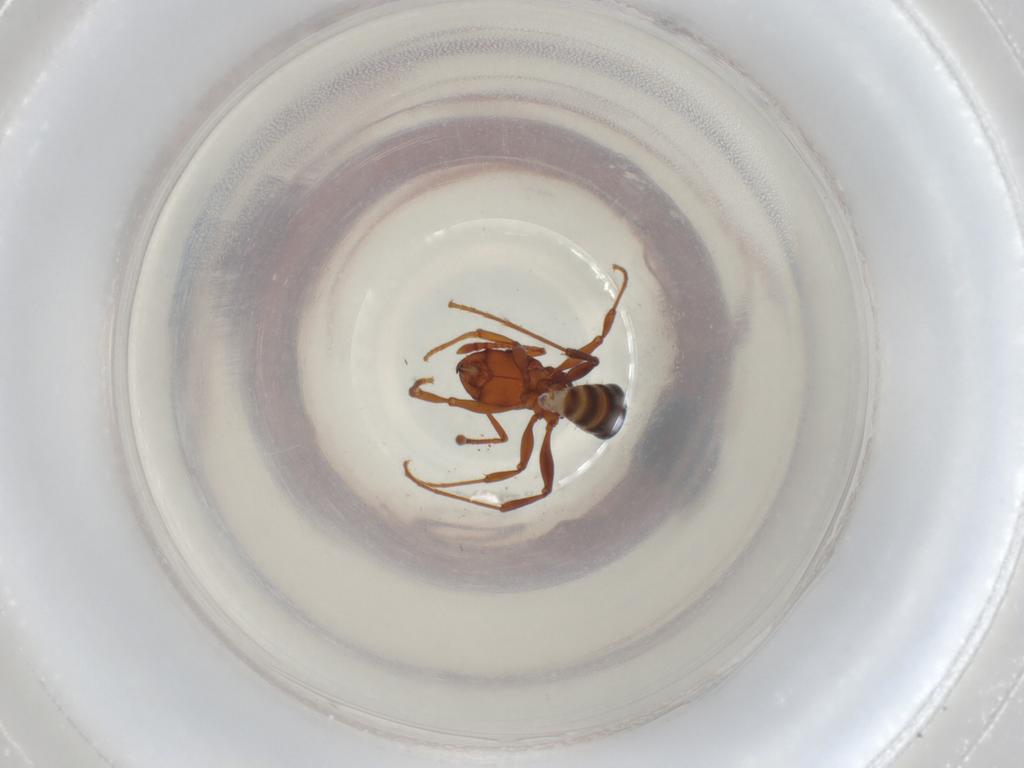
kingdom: Animalia
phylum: Arthropoda
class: Insecta
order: Hymenoptera
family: Formicidae
